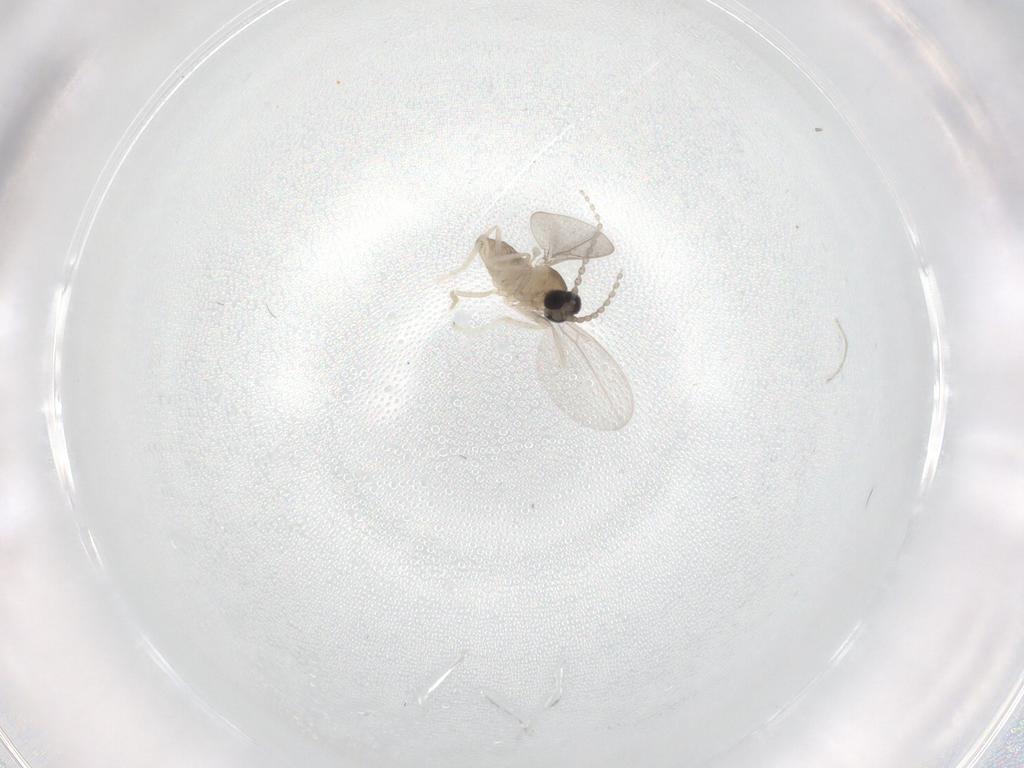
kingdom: Animalia
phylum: Arthropoda
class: Insecta
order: Diptera
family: Cecidomyiidae
